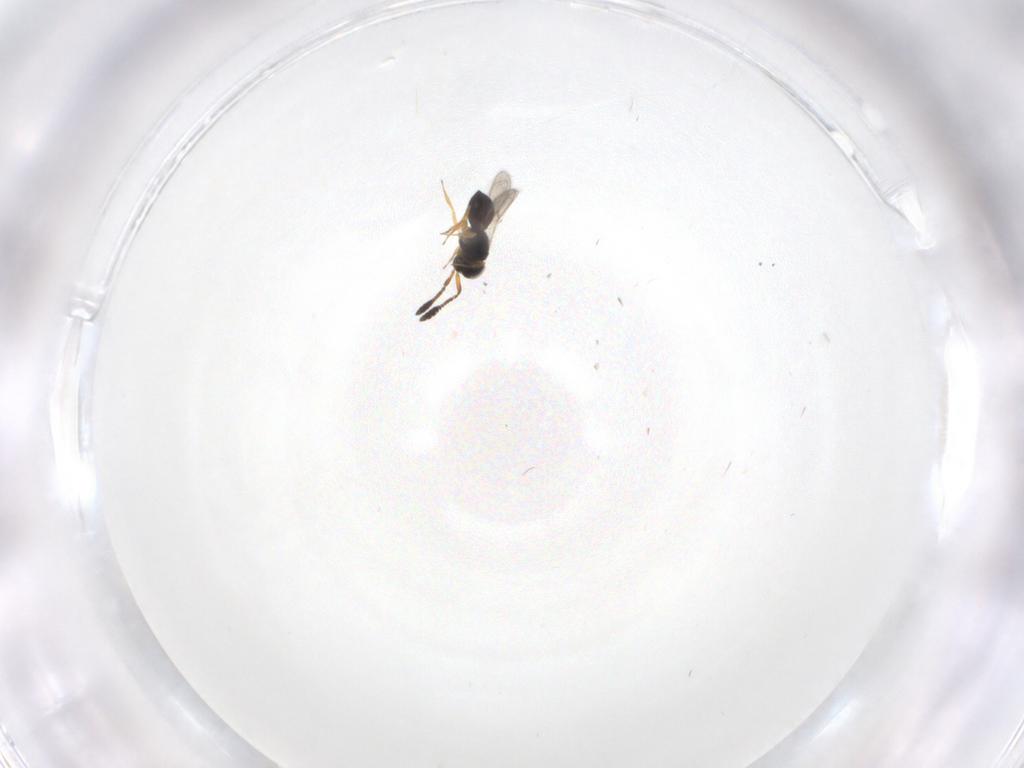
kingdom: Animalia
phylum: Arthropoda
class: Insecta
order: Hymenoptera
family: Scelionidae
